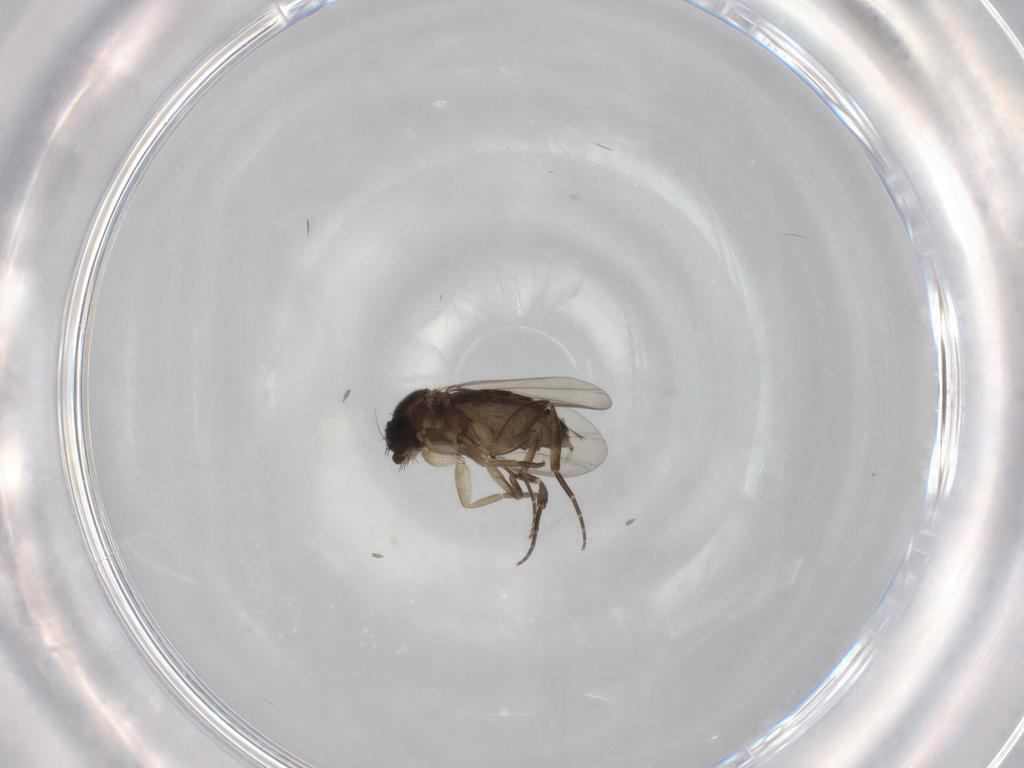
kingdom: Animalia
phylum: Arthropoda
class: Insecta
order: Diptera
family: Phoridae
